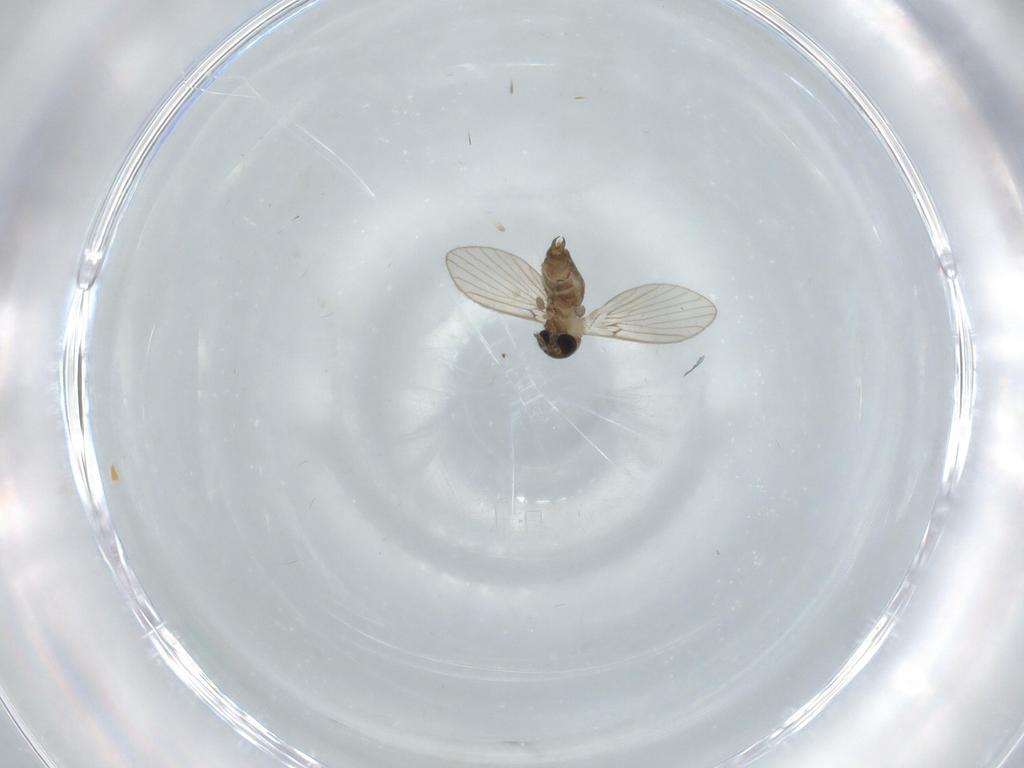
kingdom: Animalia
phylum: Arthropoda
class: Insecta
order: Diptera
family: Psychodidae
